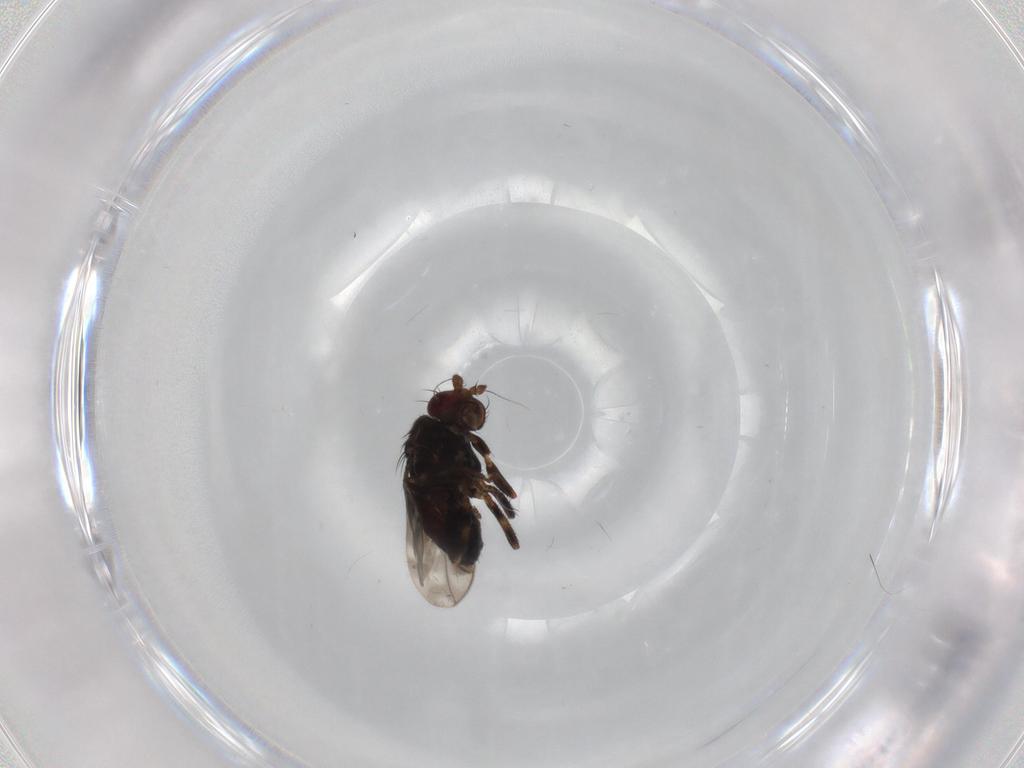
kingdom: Animalia
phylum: Arthropoda
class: Insecta
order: Diptera
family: Sphaeroceridae
